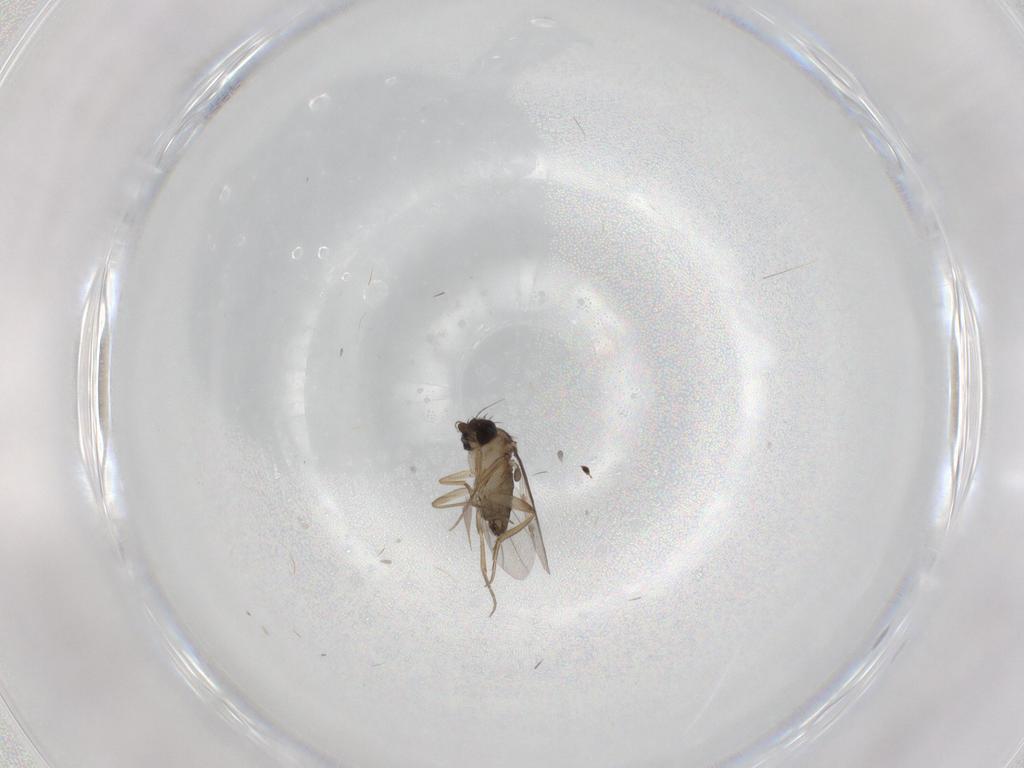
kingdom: Animalia
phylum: Arthropoda
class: Insecta
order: Diptera
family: Phoridae
